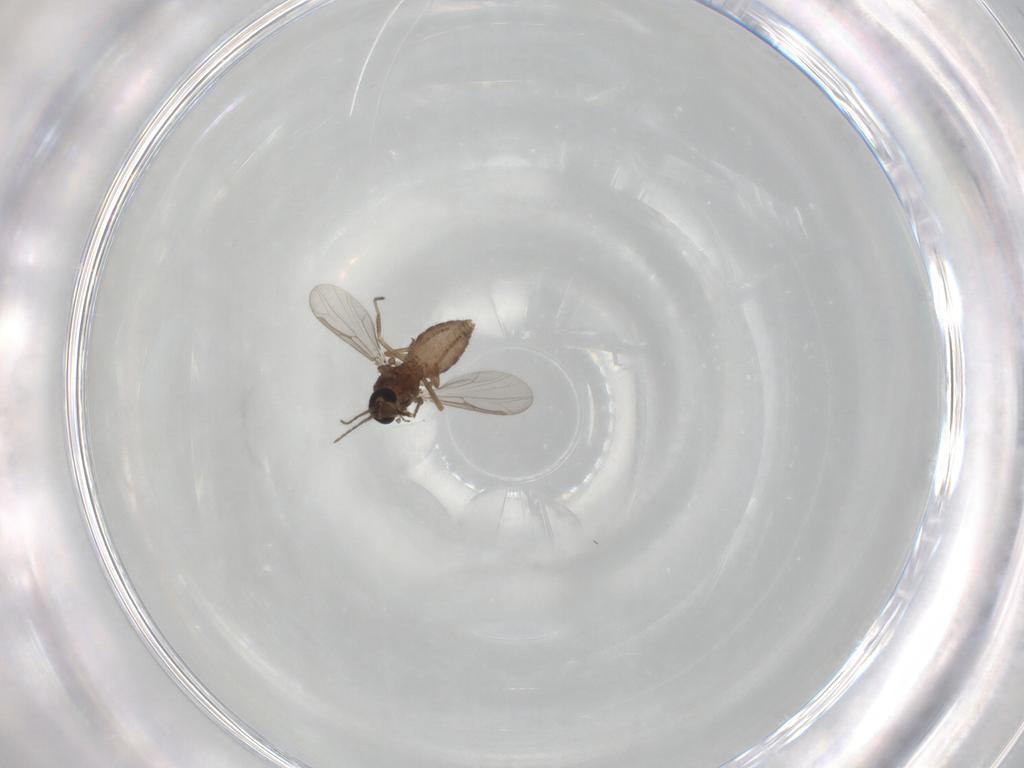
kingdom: Animalia
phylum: Arthropoda
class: Insecta
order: Diptera
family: Ceratopogonidae
